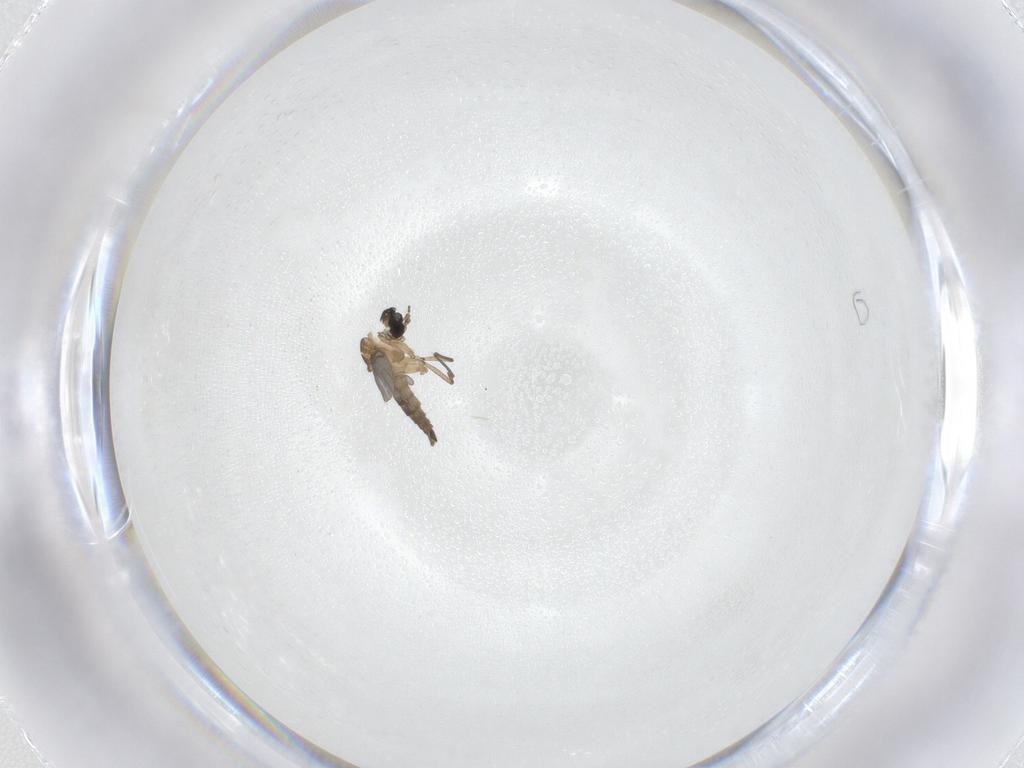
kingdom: Animalia
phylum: Arthropoda
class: Insecta
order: Diptera
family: Sciaridae
